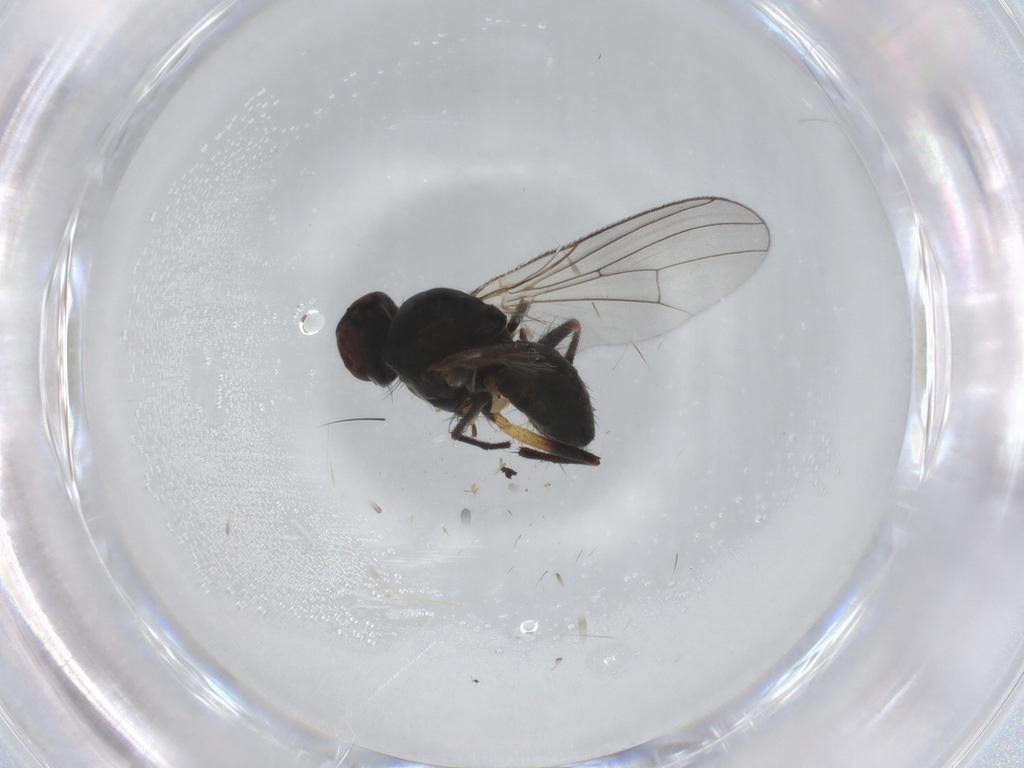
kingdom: Animalia
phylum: Arthropoda
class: Insecta
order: Diptera
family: Muscidae
